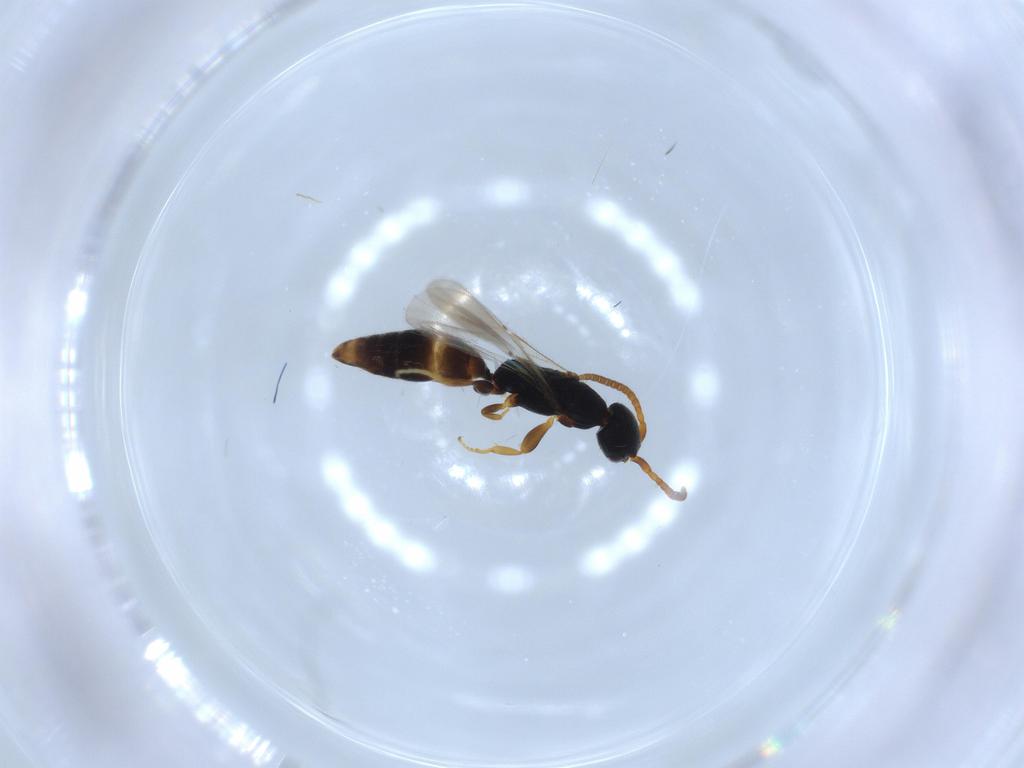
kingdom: Animalia
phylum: Arthropoda
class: Insecta
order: Hymenoptera
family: Bethylidae
